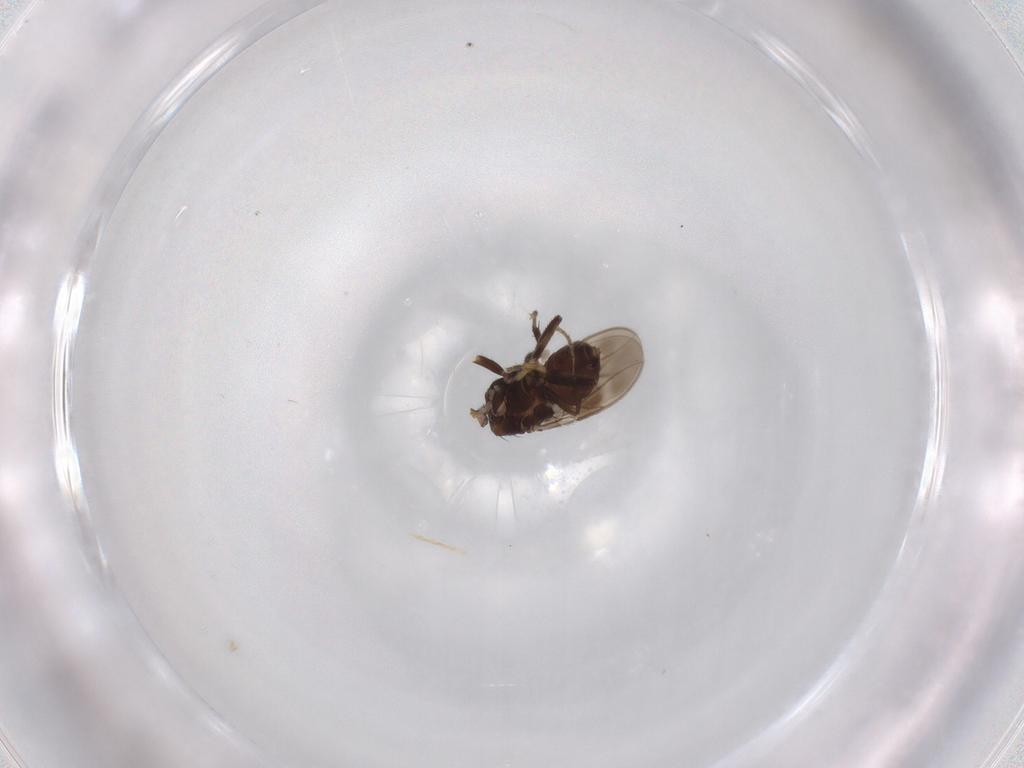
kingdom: Animalia
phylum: Arthropoda
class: Insecta
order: Diptera
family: Sphaeroceridae
